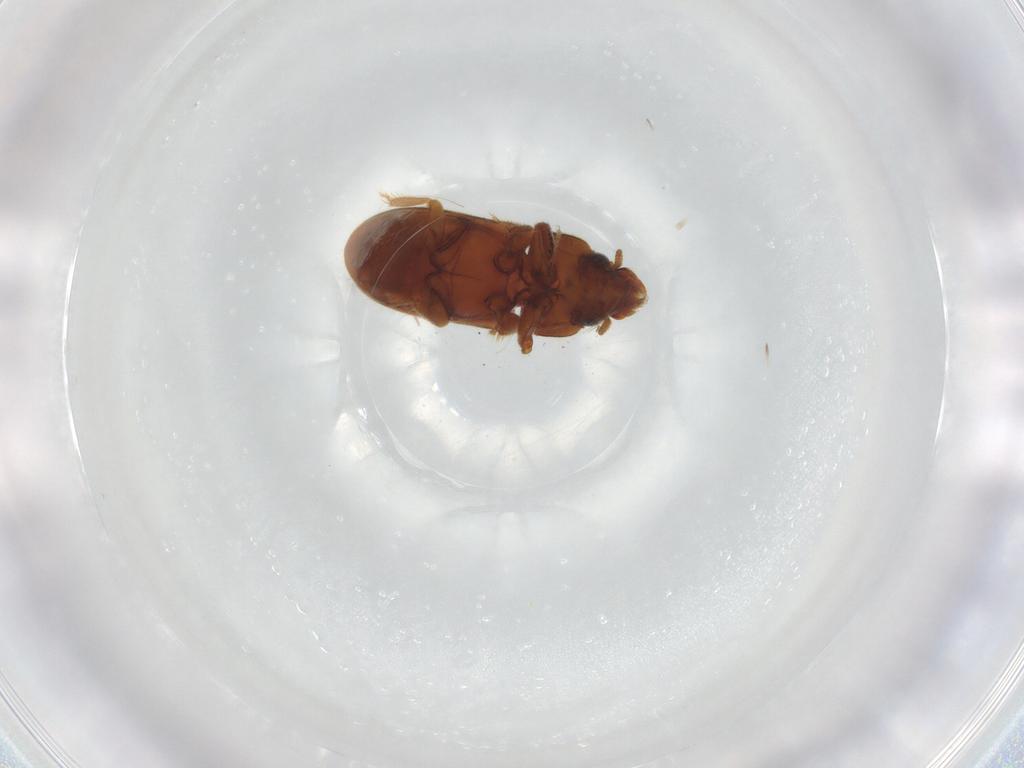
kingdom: Animalia
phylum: Arthropoda
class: Insecta
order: Coleoptera
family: Heteroceridae
